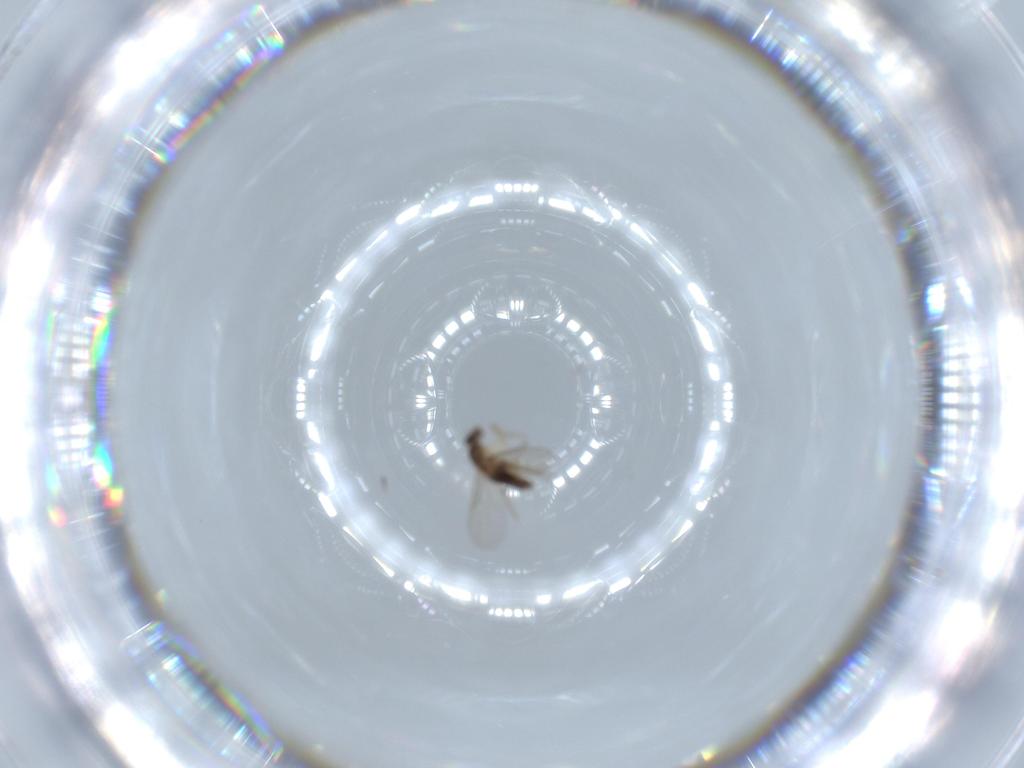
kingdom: Animalia
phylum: Arthropoda
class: Insecta
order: Diptera
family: Phoridae
